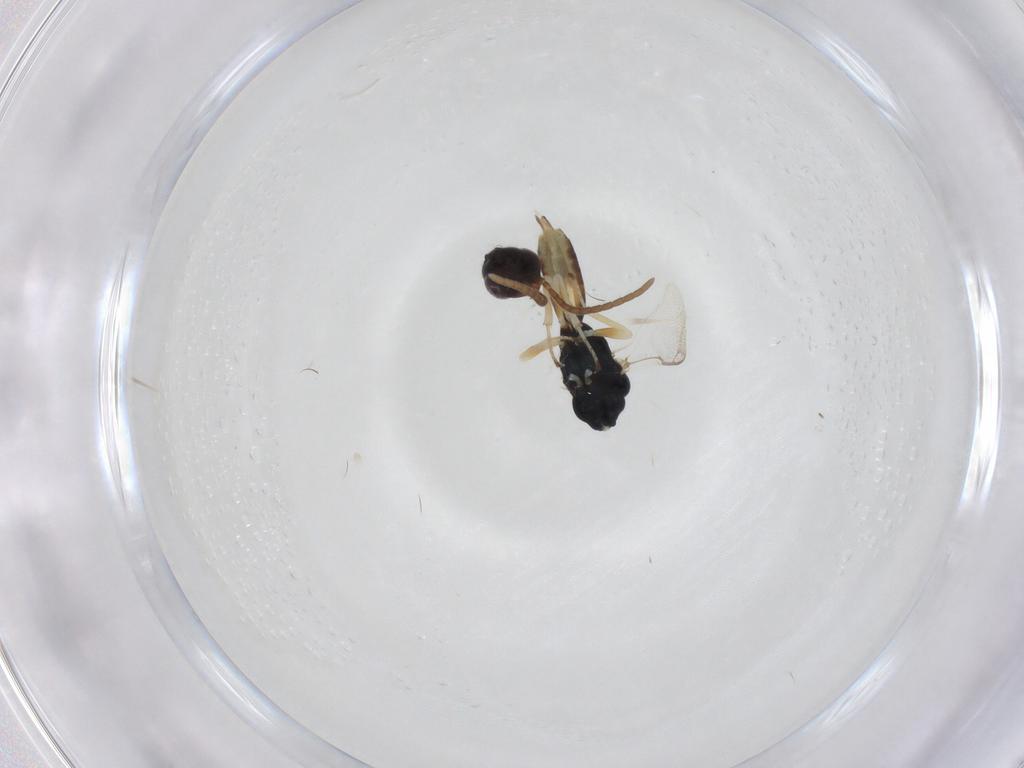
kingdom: Animalia
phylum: Arthropoda
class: Insecta
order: Hymenoptera
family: Bethylidae
